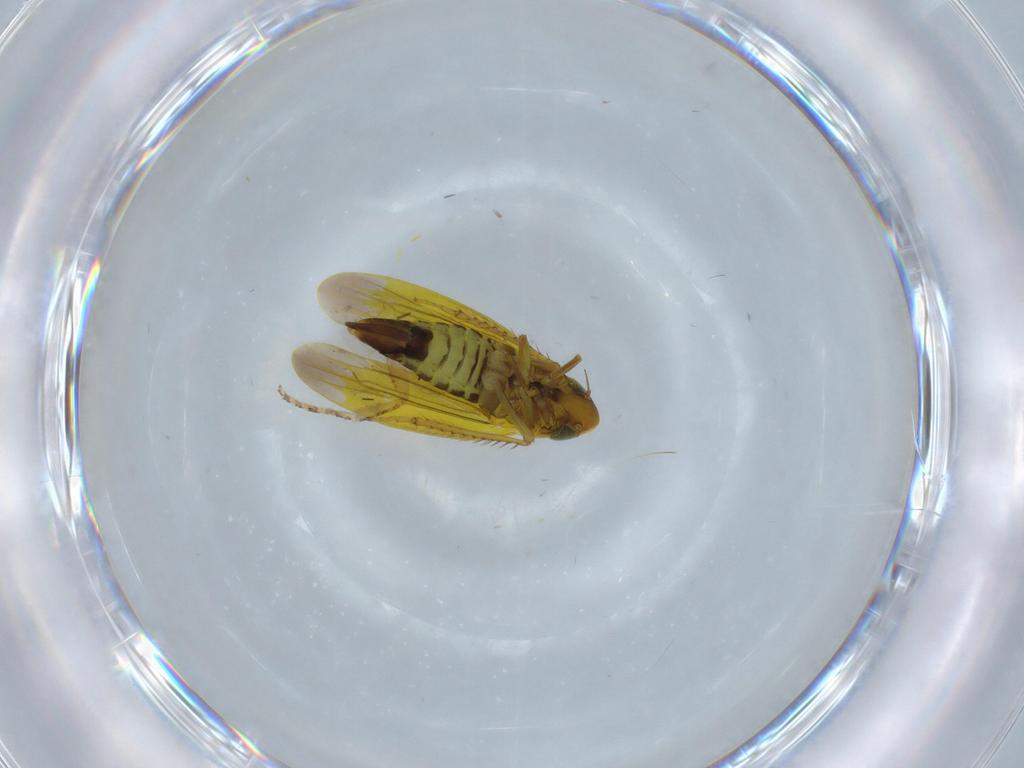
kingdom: Animalia
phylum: Arthropoda
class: Insecta
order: Hemiptera
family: Cicadellidae
